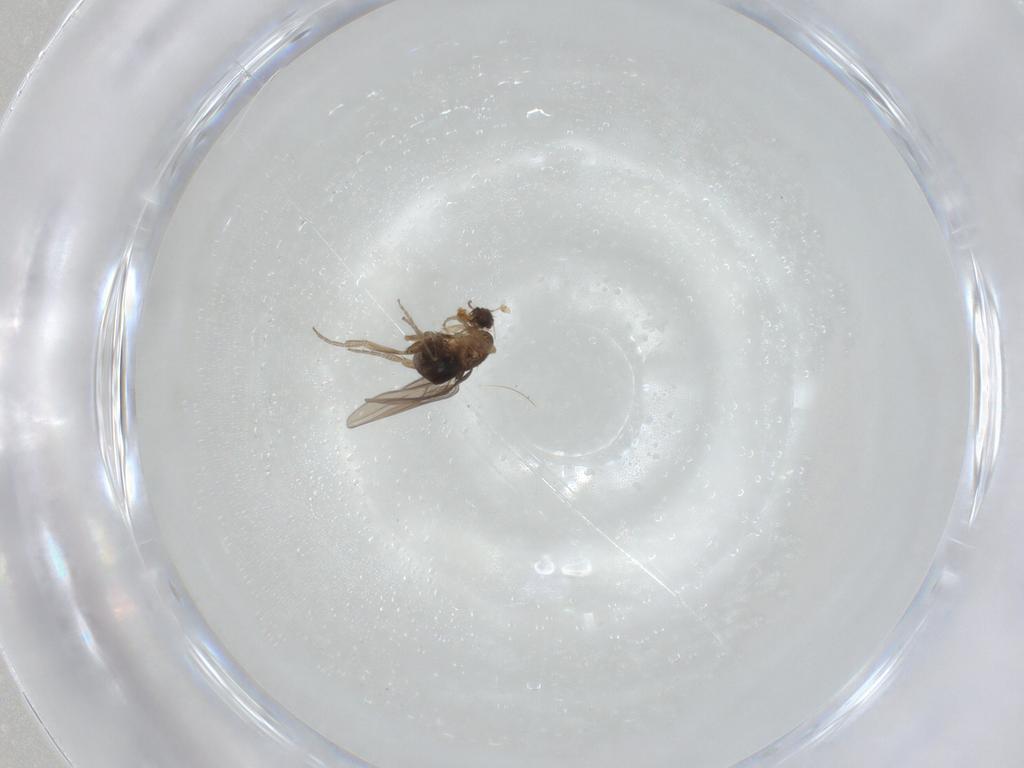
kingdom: Animalia
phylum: Arthropoda
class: Insecta
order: Diptera
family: Phoridae
